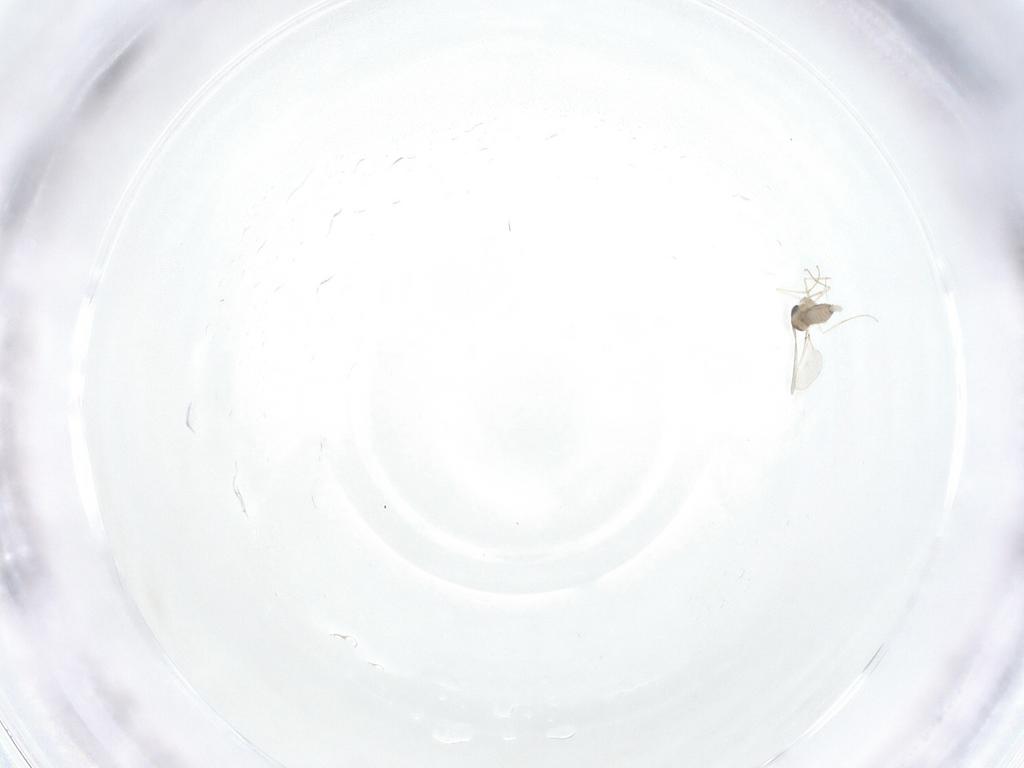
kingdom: Animalia
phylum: Arthropoda
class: Insecta
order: Diptera
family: Cecidomyiidae
